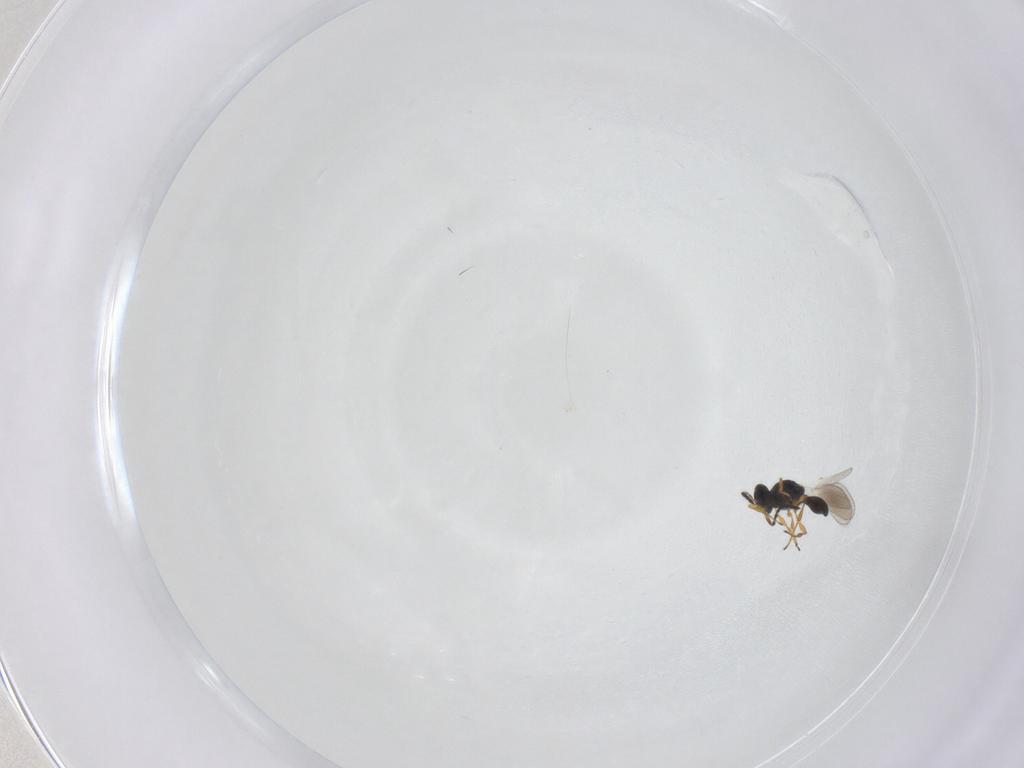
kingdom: Animalia
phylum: Arthropoda
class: Insecta
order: Hymenoptera
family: Platygastridae
